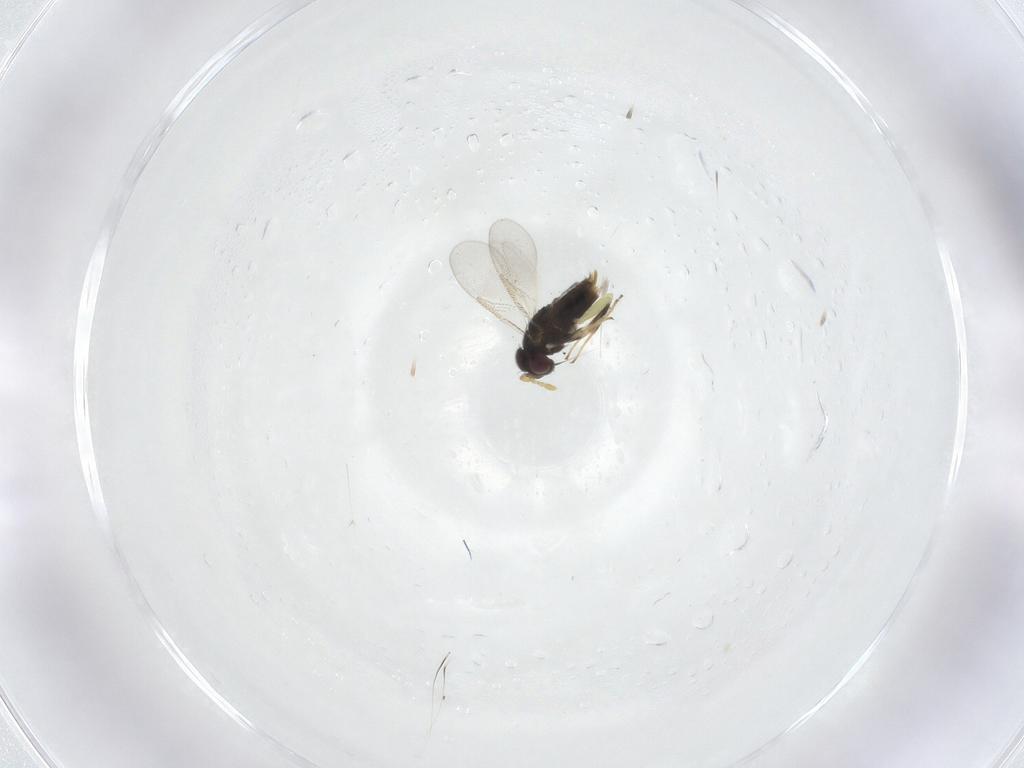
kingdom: Animalia
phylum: Arthropoda
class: Insecta
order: Hymenoptera
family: Aphelinidae
